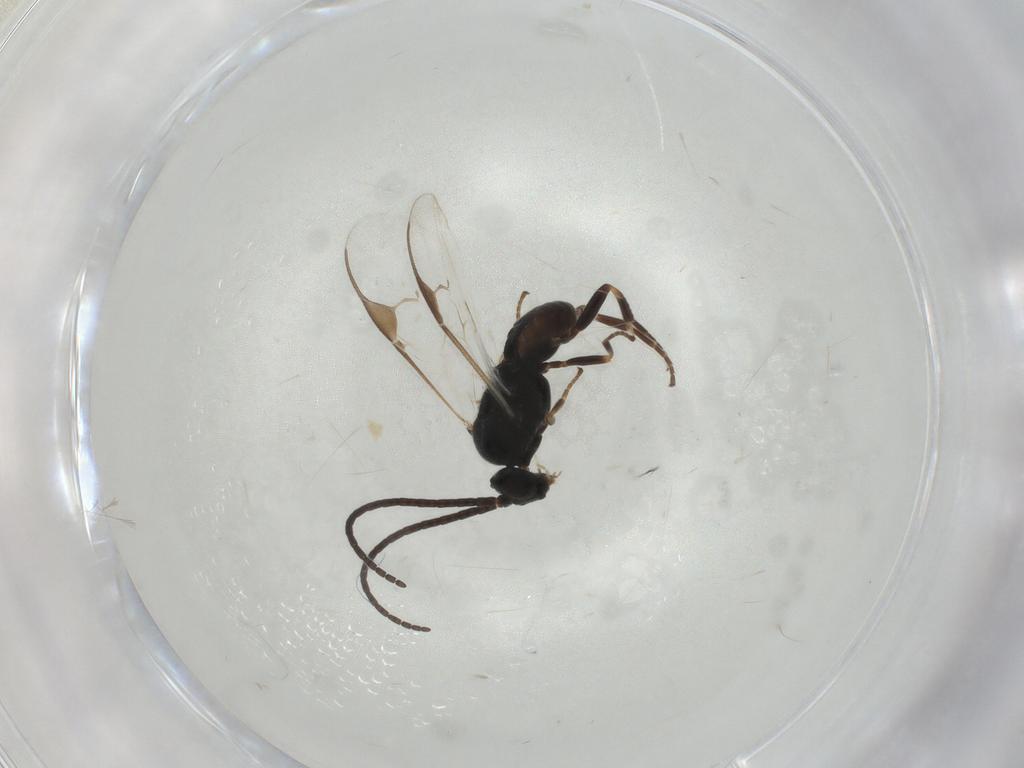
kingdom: Animalia
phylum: Arthropoda
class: Insecta
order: Hymenoptera
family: Braconidae
